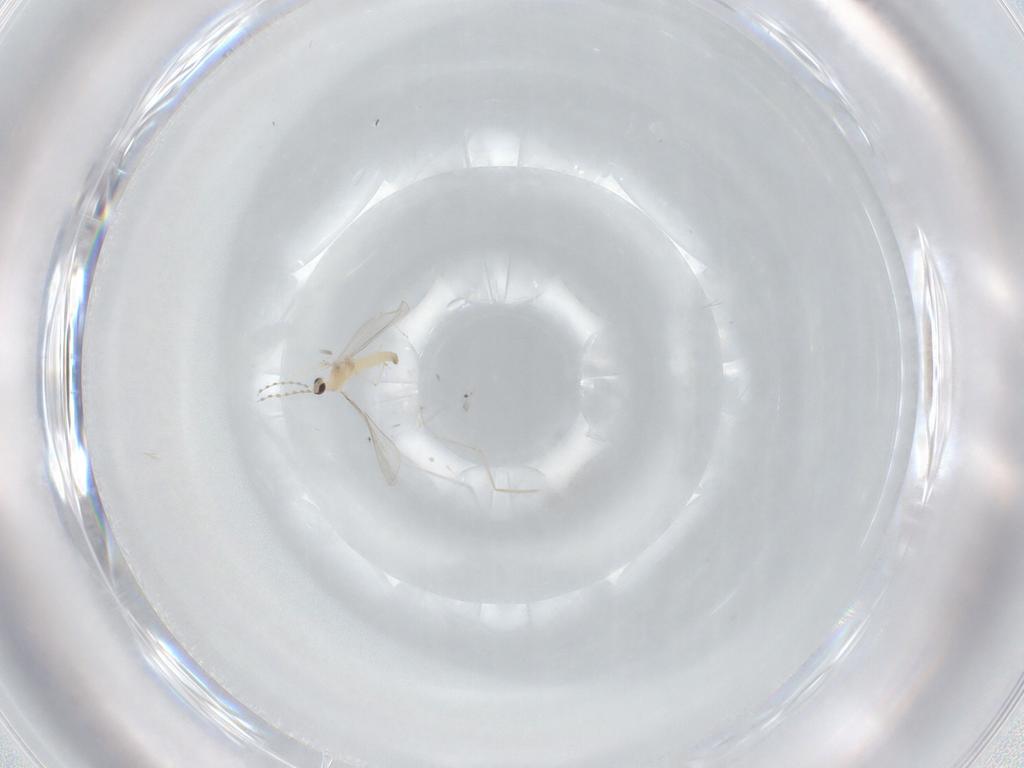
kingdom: Animalia
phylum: Arthropoda
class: Insecta
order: Diptera
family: Cecidomyiidae
